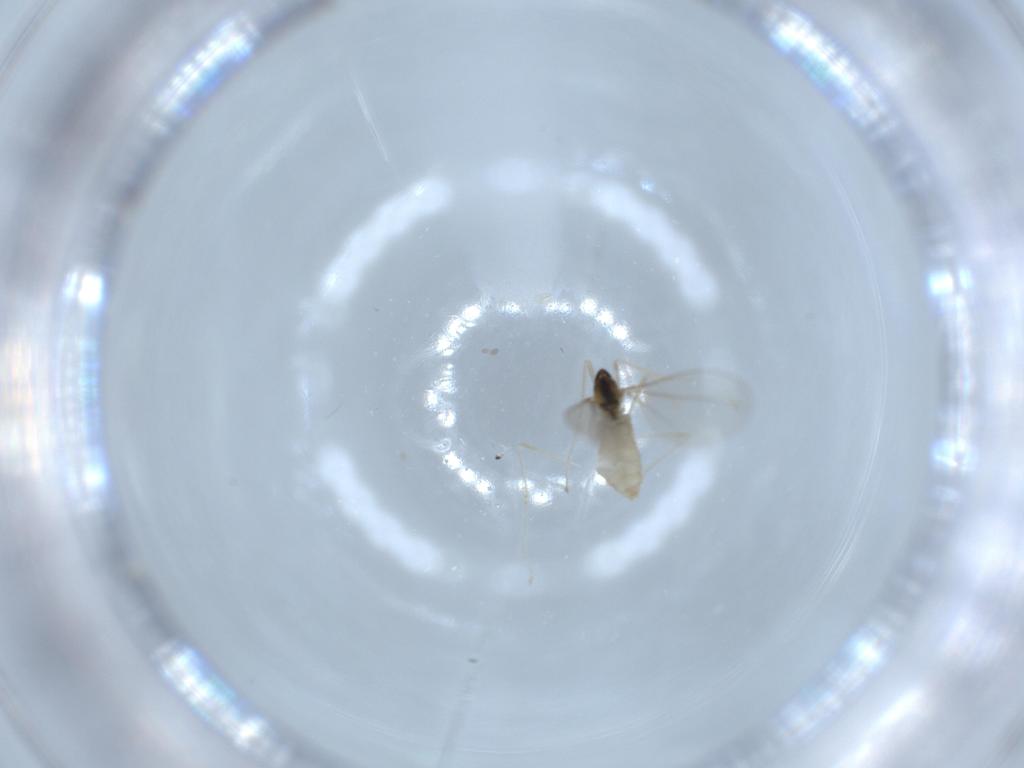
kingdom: Animalia
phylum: Arthropoda
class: Insecta
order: Diptera
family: Cecidomyiidae
